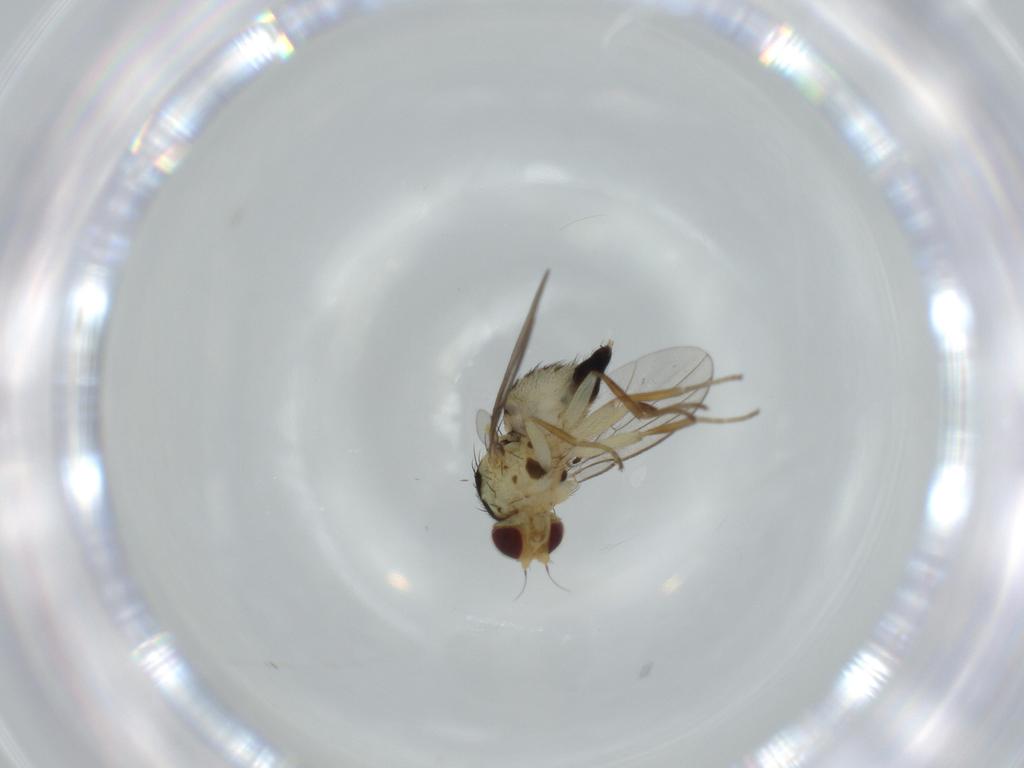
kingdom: Animalia
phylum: Arthropoda
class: Insecta
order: Diptera
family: Agromyzidae
